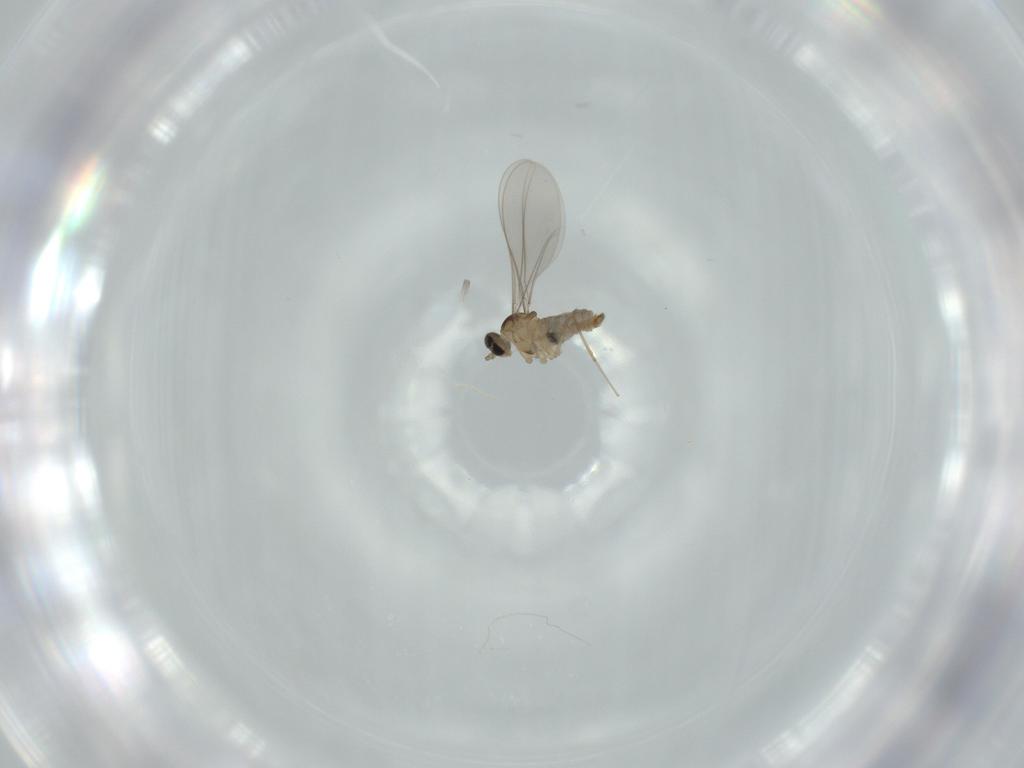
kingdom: Animalia
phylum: Arthropoda
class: Insecta
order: Diptera
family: Cecidomyiidae
